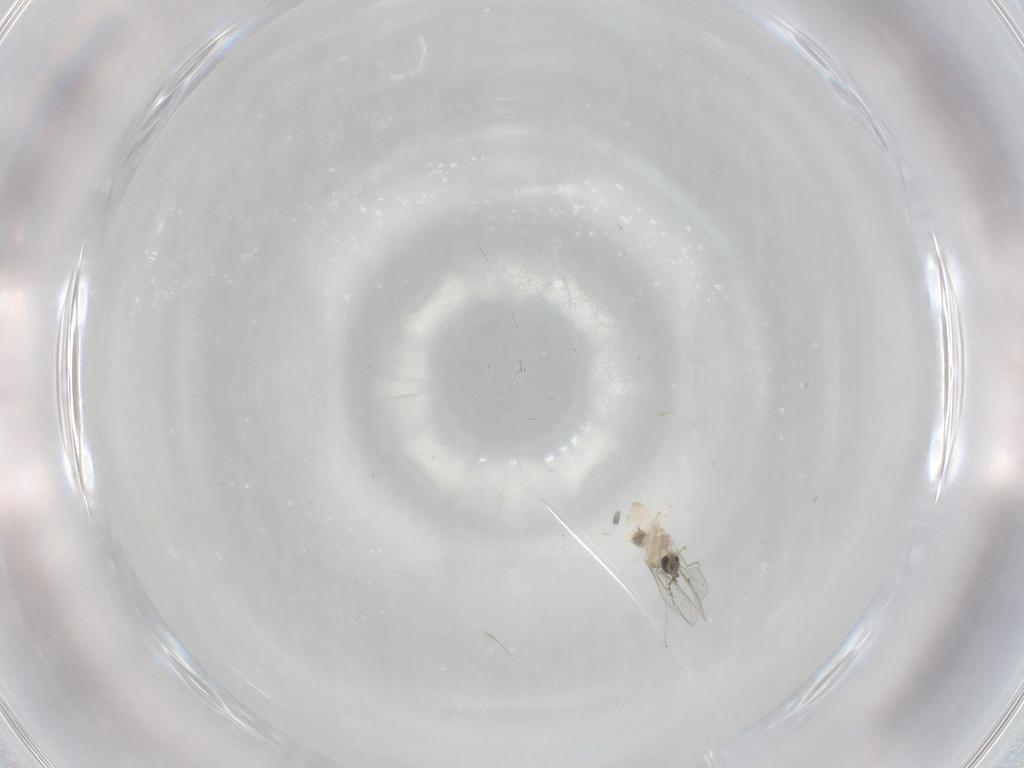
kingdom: Animalia
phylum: Arthropoda
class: Insecta
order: Diptera
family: Cecidomyiidae
